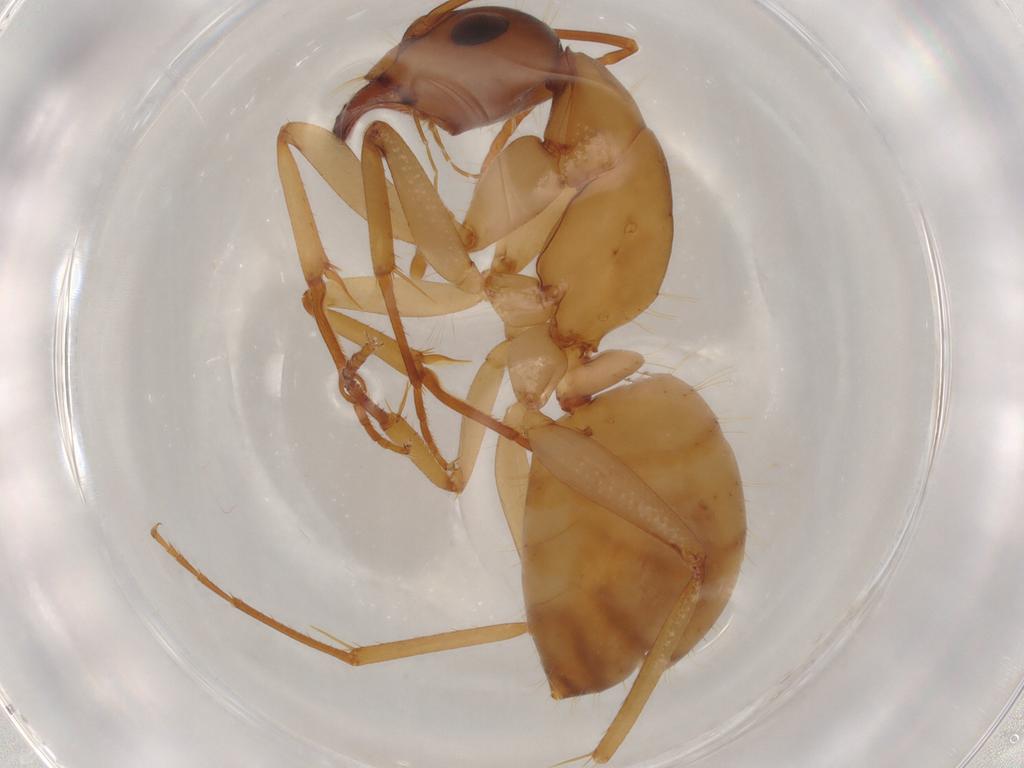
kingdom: Animalia
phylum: Arthropoda
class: Insecta
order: Hymenoptera
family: Formicidae
